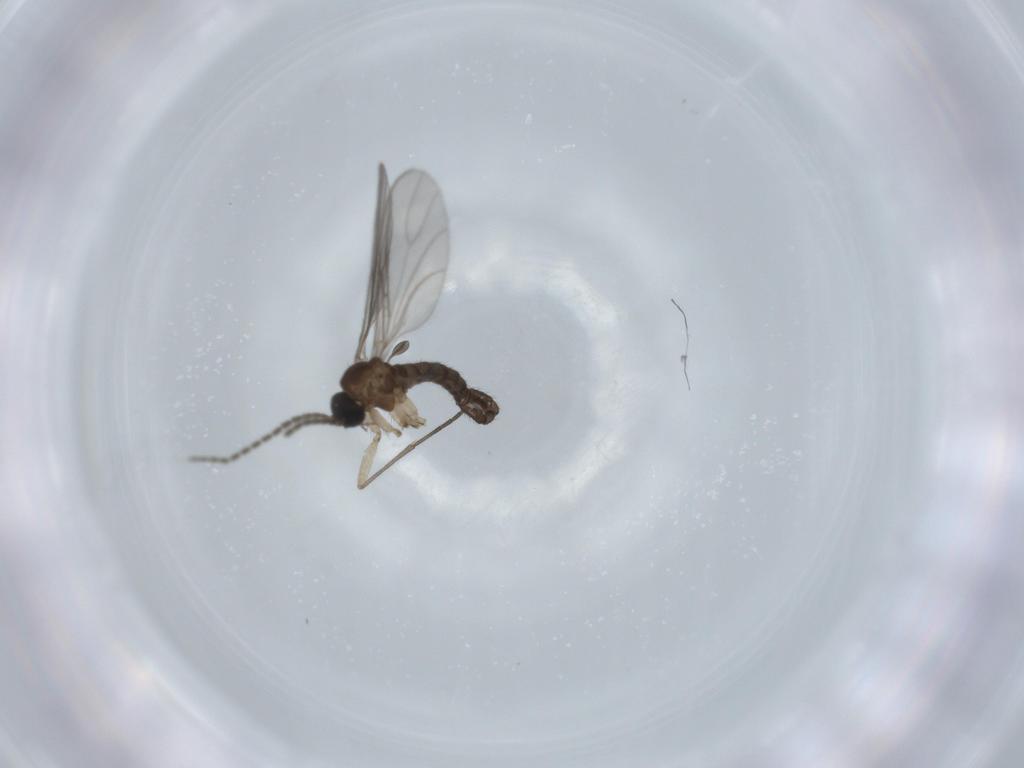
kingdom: Animalia
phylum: Arthropoda
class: Insecta
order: Diptera
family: Sciaridae
